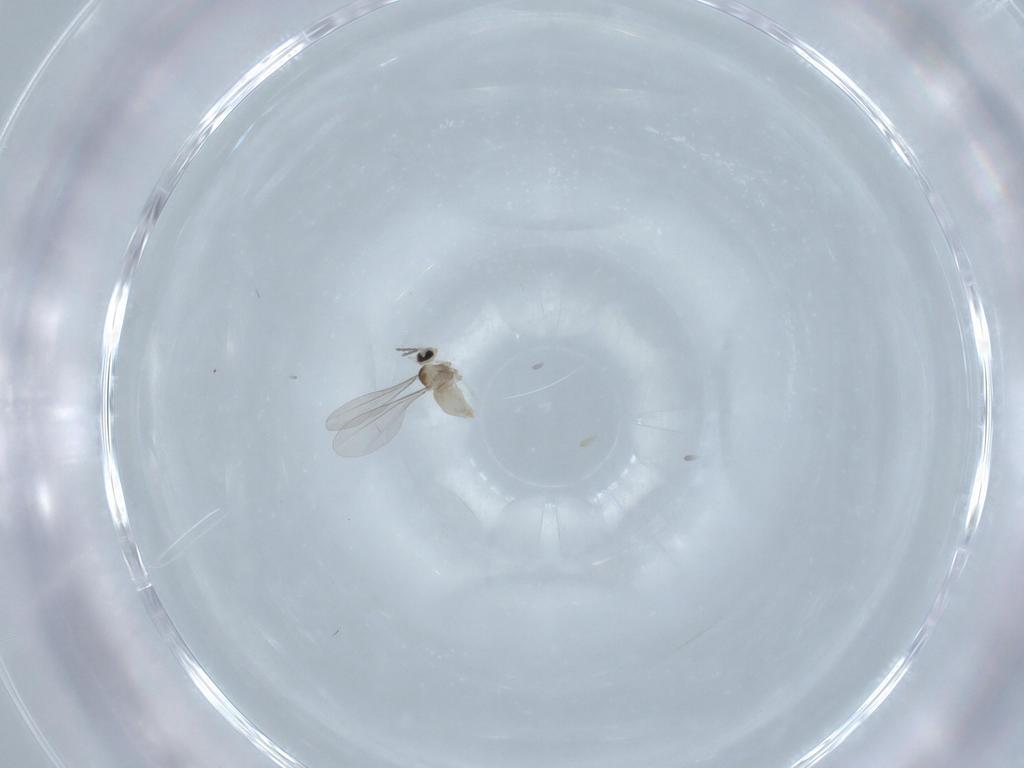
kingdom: Animalia
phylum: Arthropoda
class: Insecta
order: Diptera
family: Cecidomyiidae
